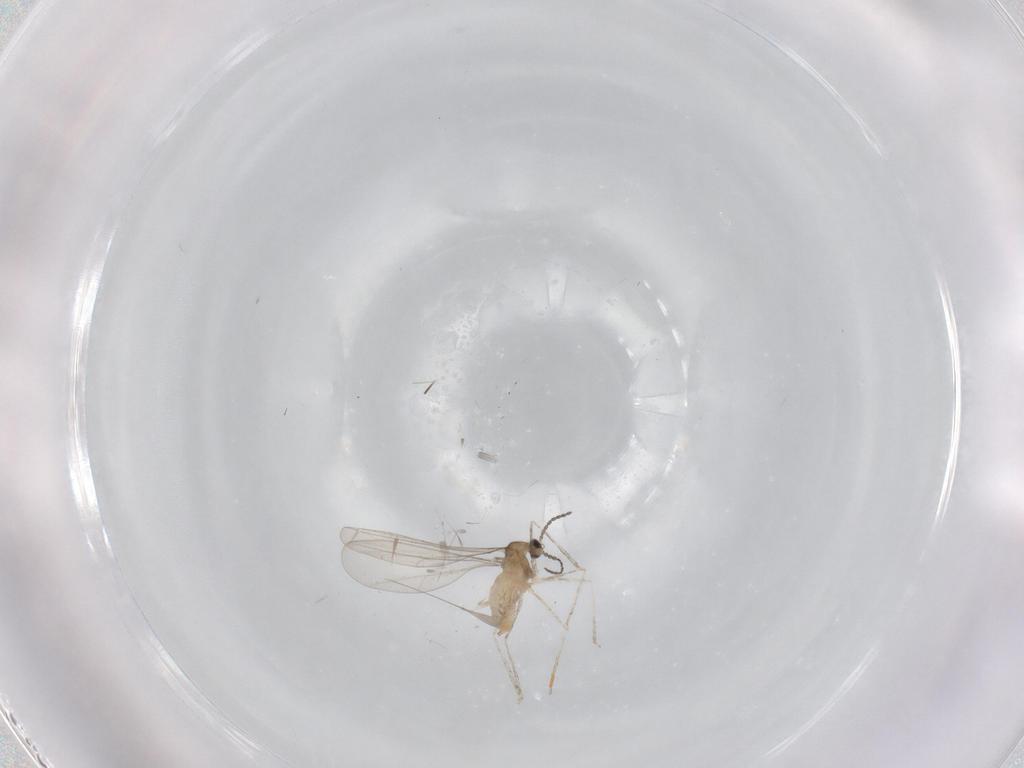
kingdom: Animalia
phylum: Arthropoda
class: Insecta
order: Diptera
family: Cecidomyiidae
